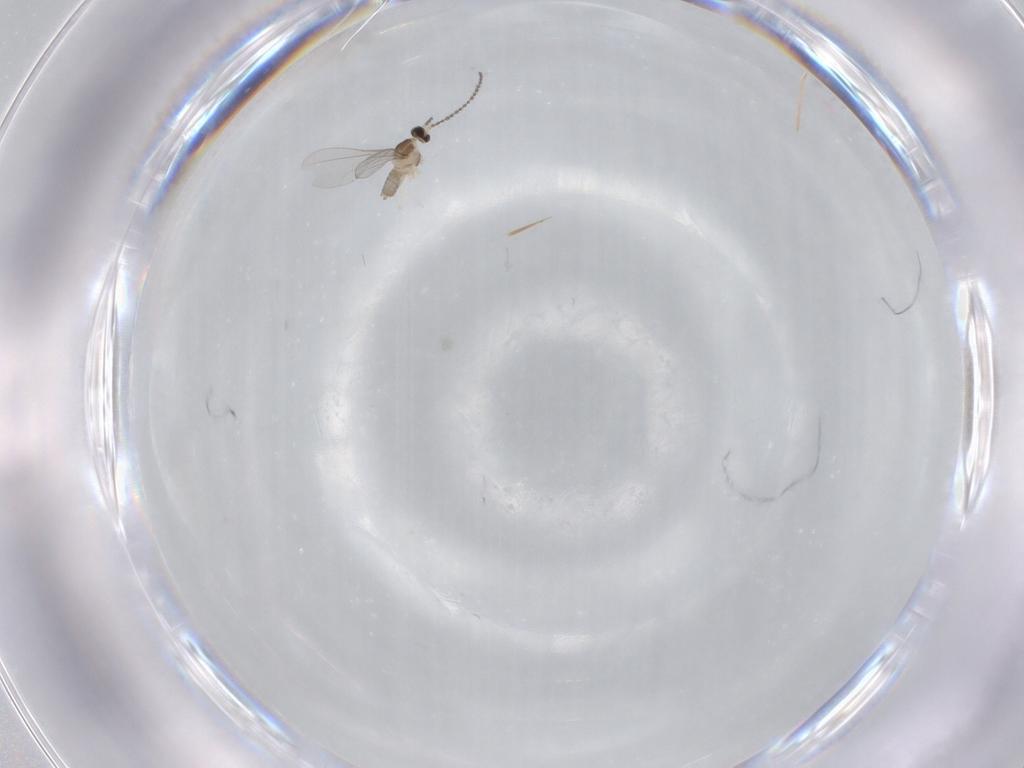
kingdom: Animalia
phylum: Arthropoda
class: Insecta
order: Diptera
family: Cecidomyiidae
